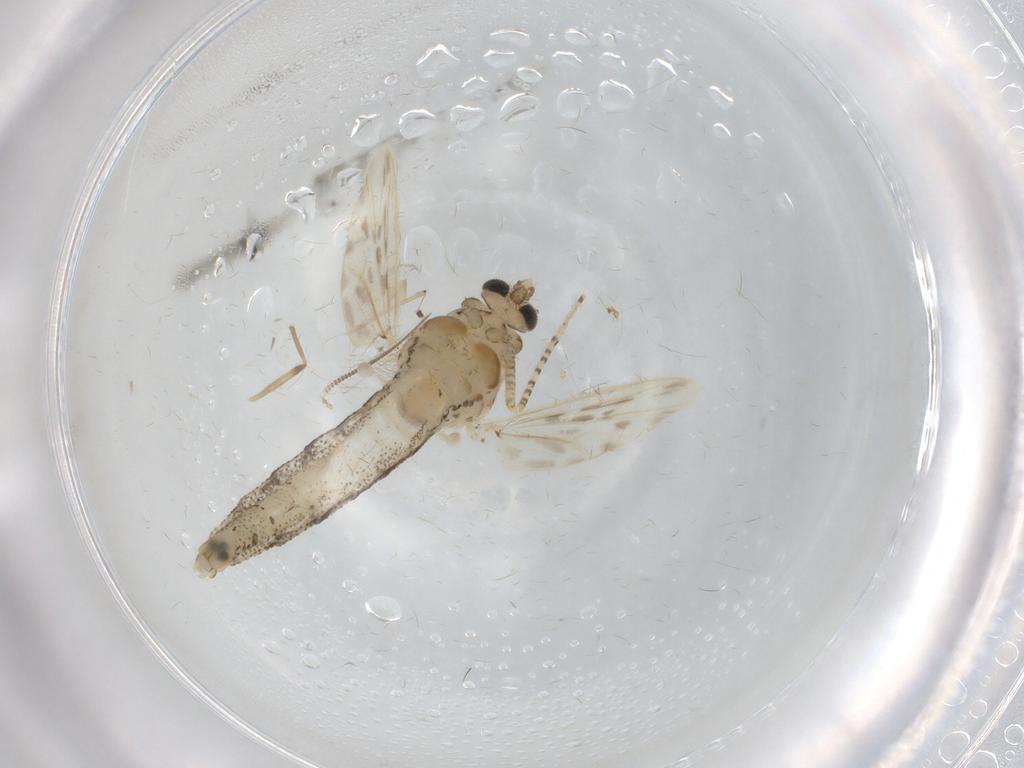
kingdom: Animalia
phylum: Arthropoda
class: Insecta
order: Diptera
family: Chaoboridae
